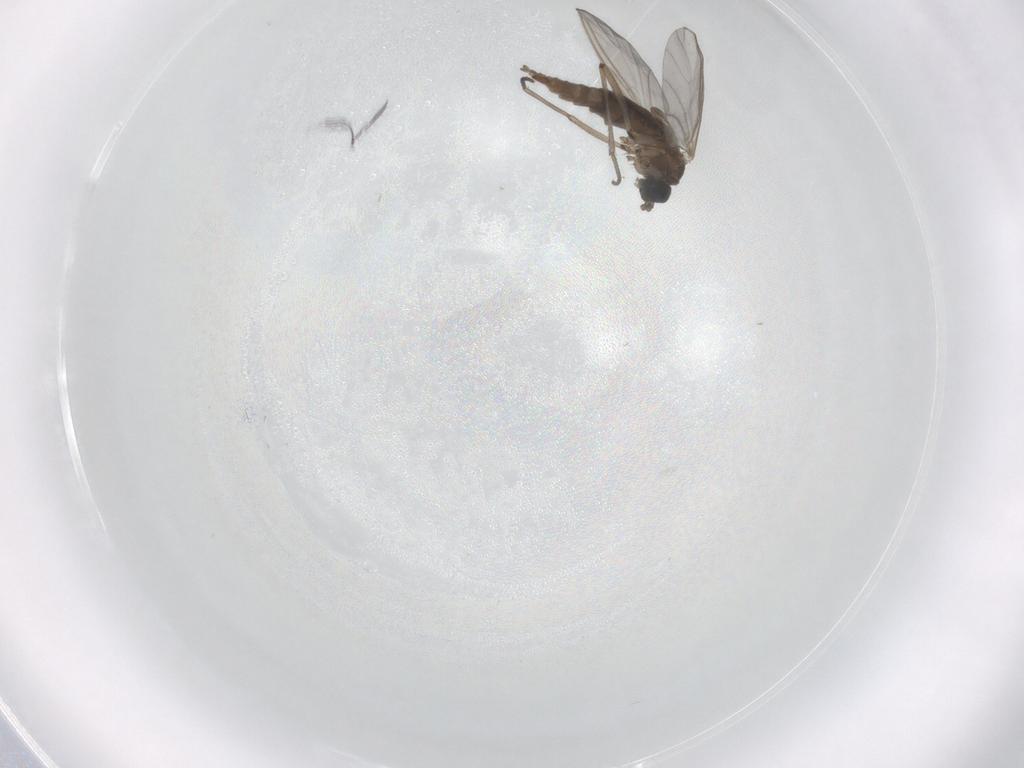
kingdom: Animalia
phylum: Arthropoda
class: Insecta
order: Diptera
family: Sciaridae
